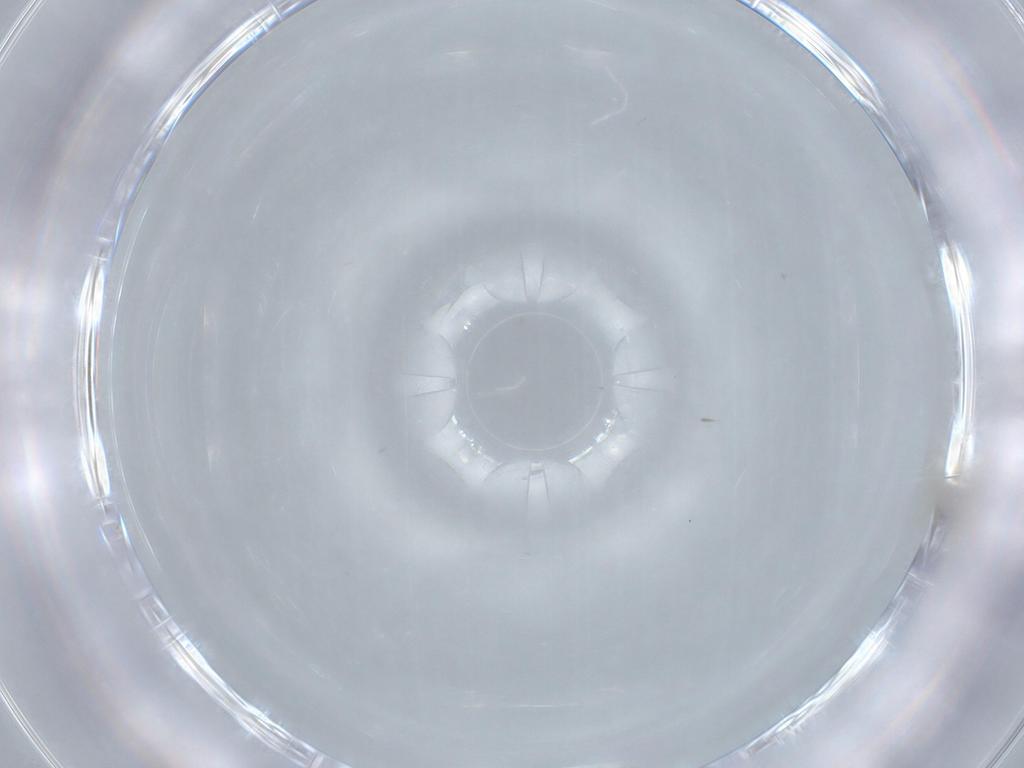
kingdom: Animalia
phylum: Arthropoda
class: Insecta
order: Diptera
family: Sciaridae
